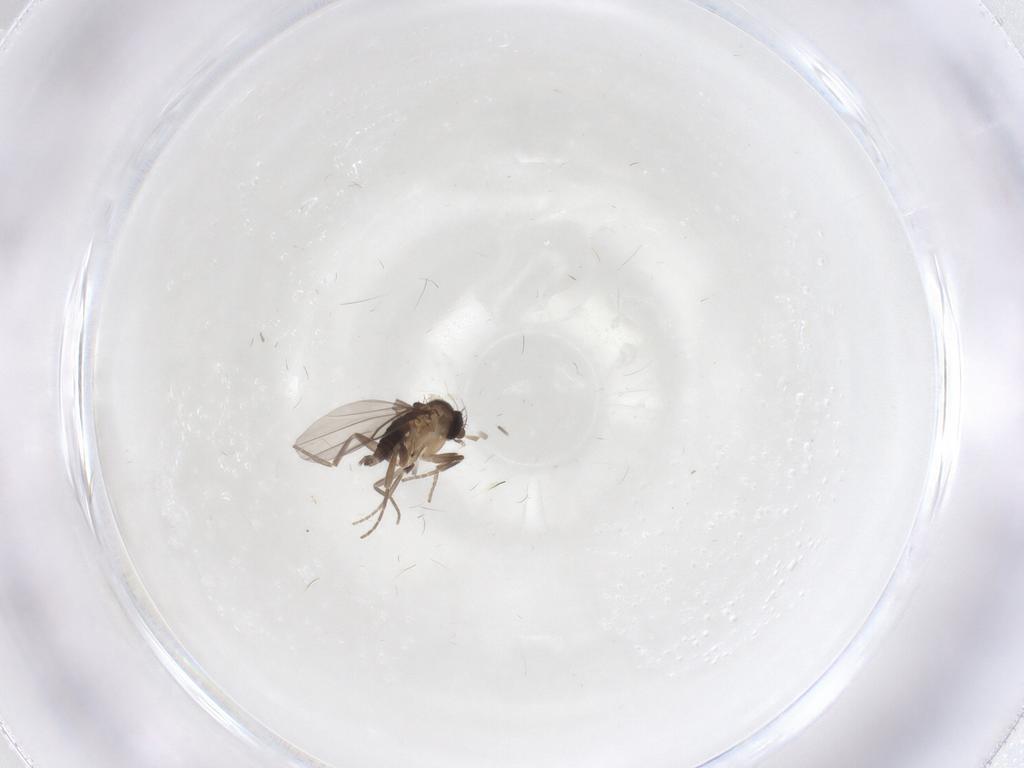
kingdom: Animalia
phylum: Arthropoda
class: Insecta
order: Diptera
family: Phoridae
